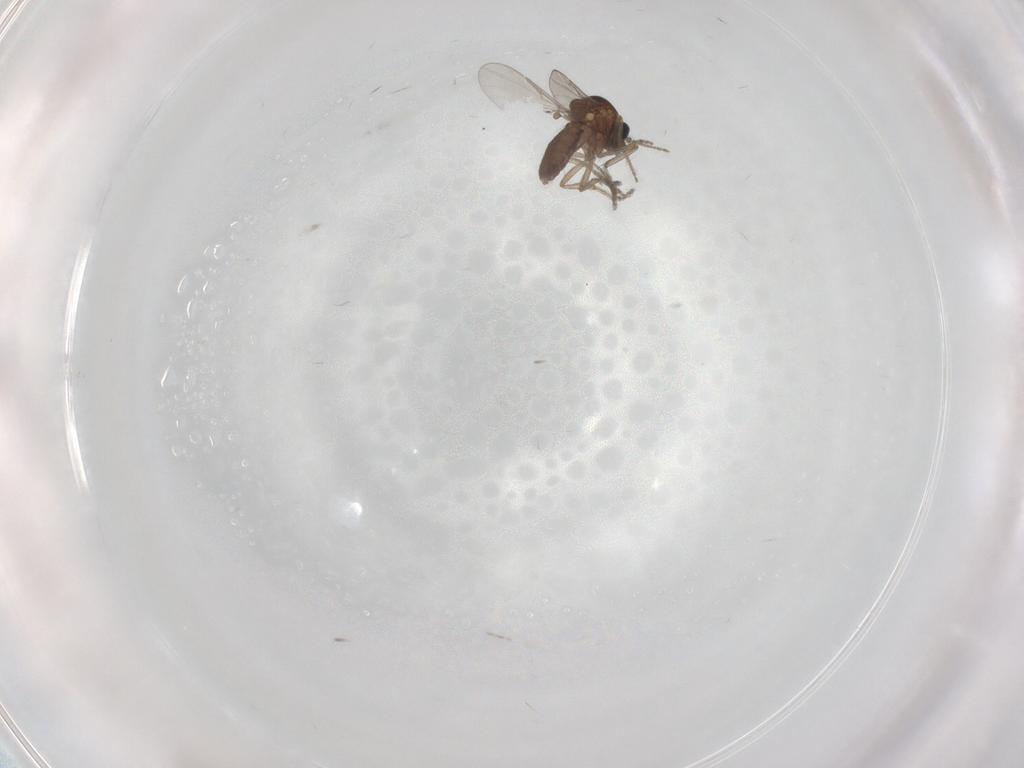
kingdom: Animalia
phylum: Arthropoda
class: Insecta
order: Diptera
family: Ceratopogonidae
